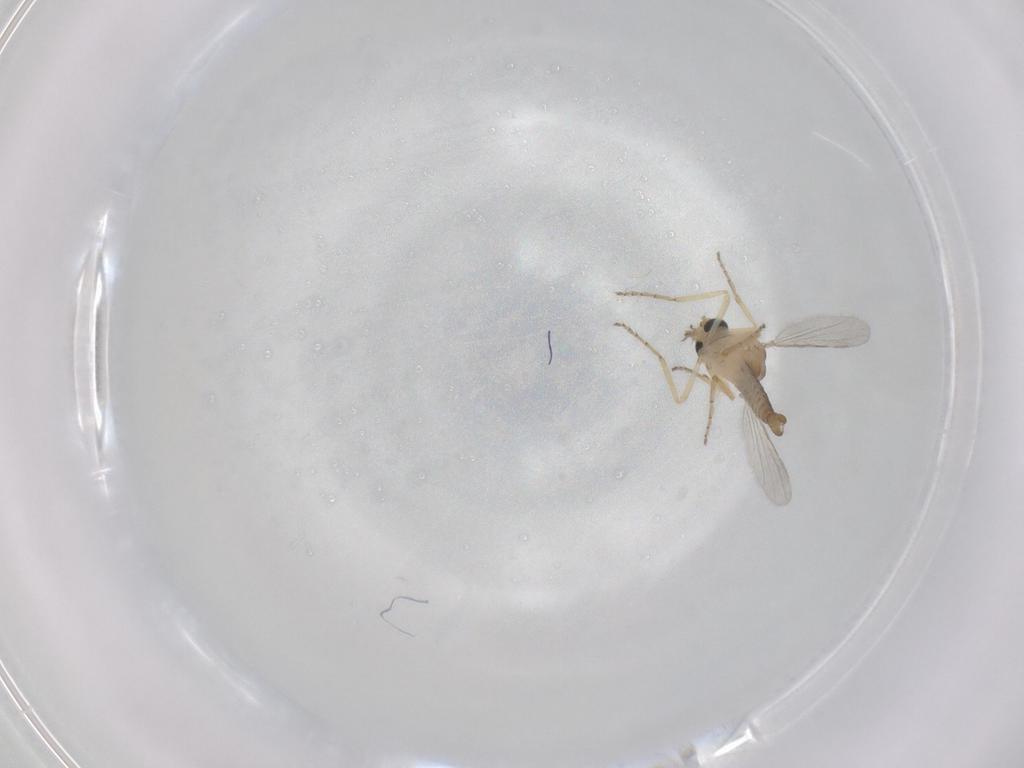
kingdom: Animalia
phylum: Arthropoda
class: Insecta
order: Diptera
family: Ceratopogonidae
